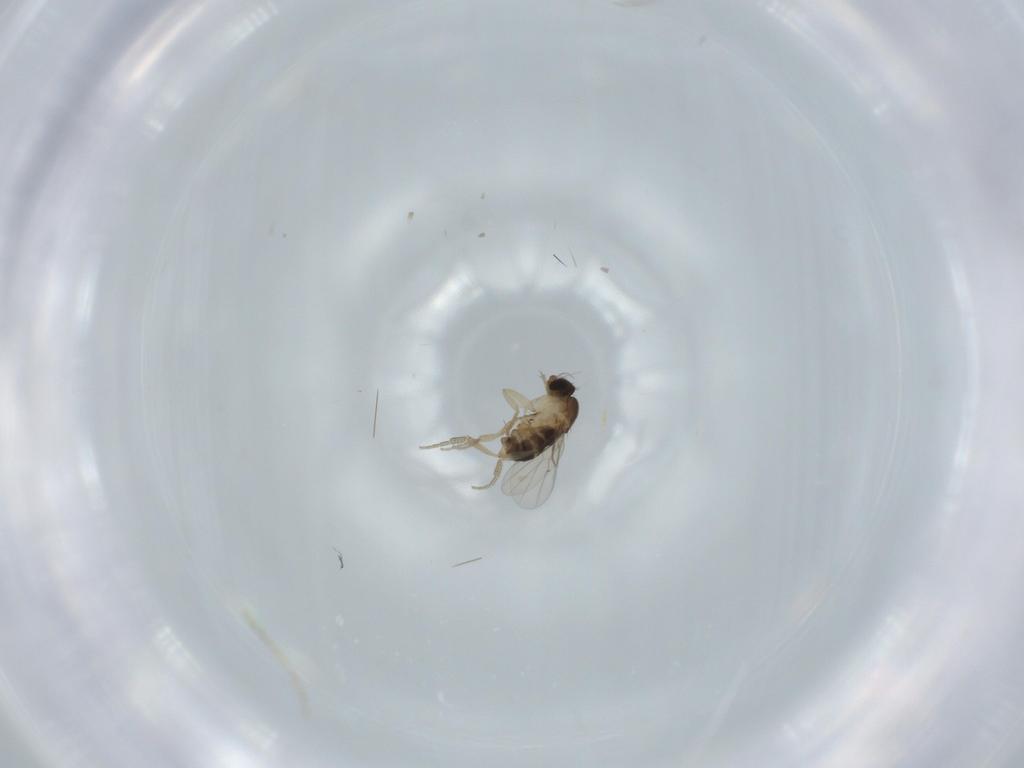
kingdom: Animalia
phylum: Arthropoda
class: Insecta
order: Diptera
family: Phoridae
